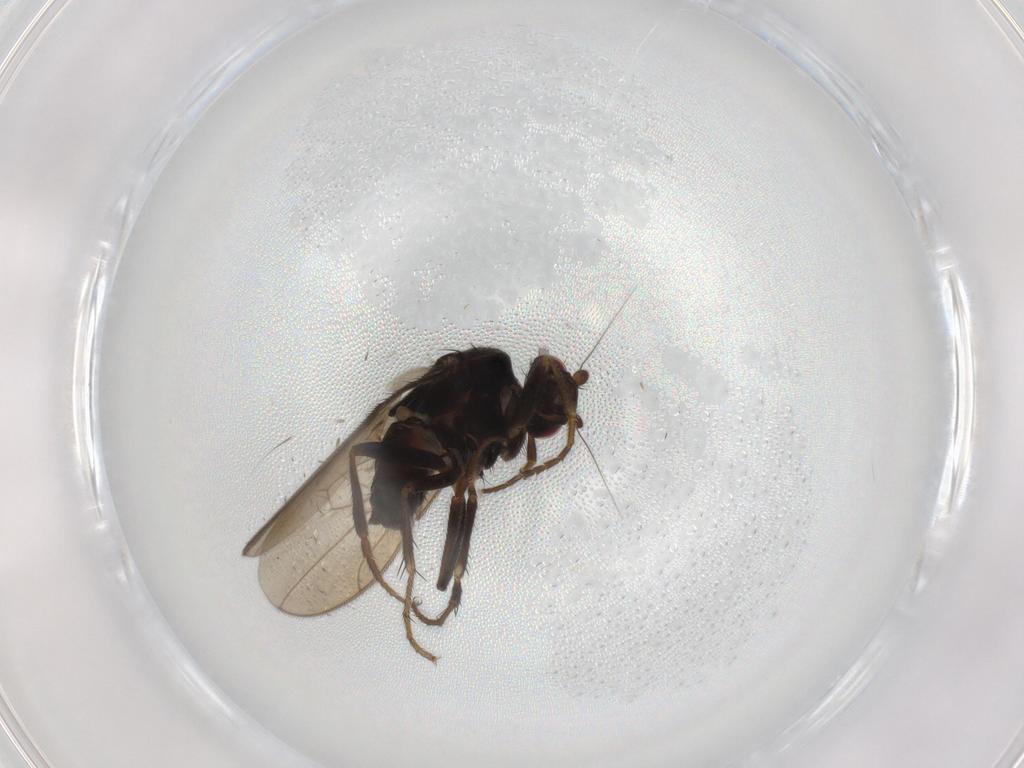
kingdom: Animalia
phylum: Arthropoda
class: Insecta
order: Diptera
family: Sphaeroceridae
